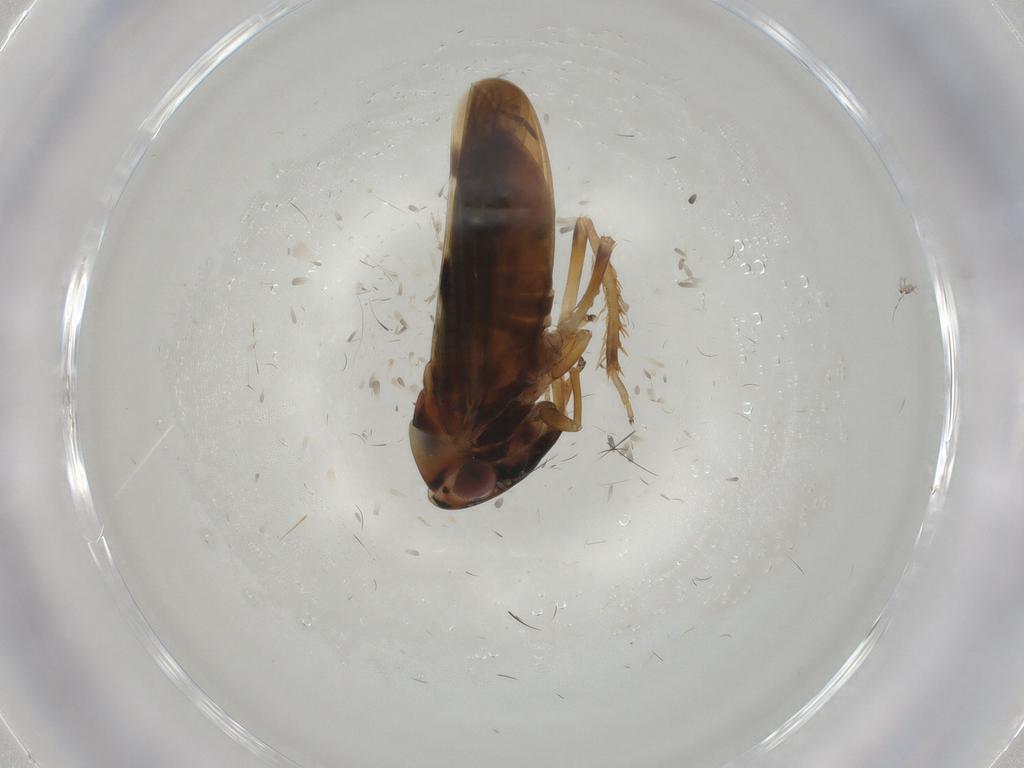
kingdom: Animalia
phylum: Arthropoda
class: Insecta
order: Hemiptera
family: Cicadellidae
